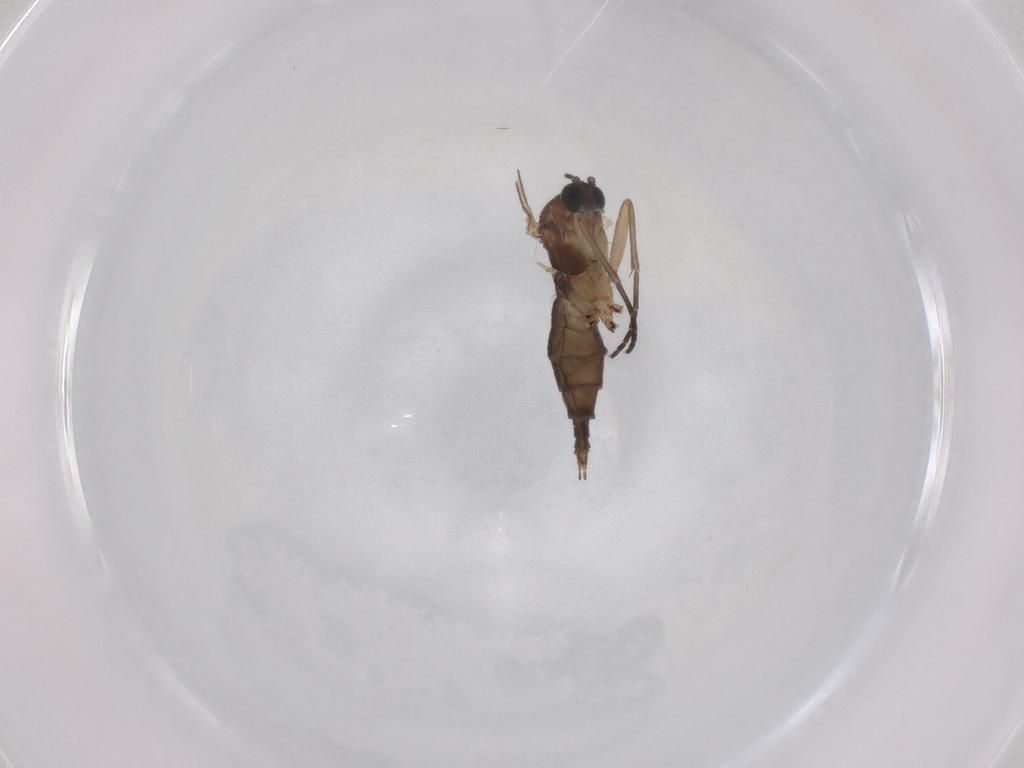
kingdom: Animalia
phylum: Arthropoda
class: Insecta
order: Diptera
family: Sciaridae
